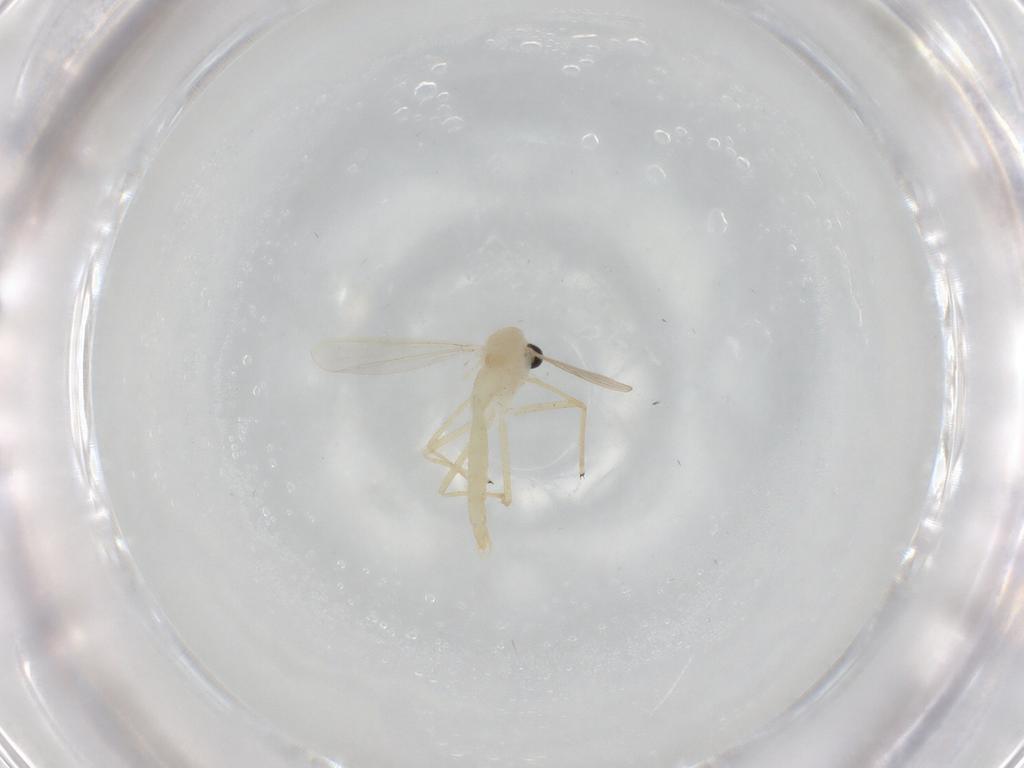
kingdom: Animalia
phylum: Arthropoda
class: Insecta
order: Diptera
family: Chironomidae
